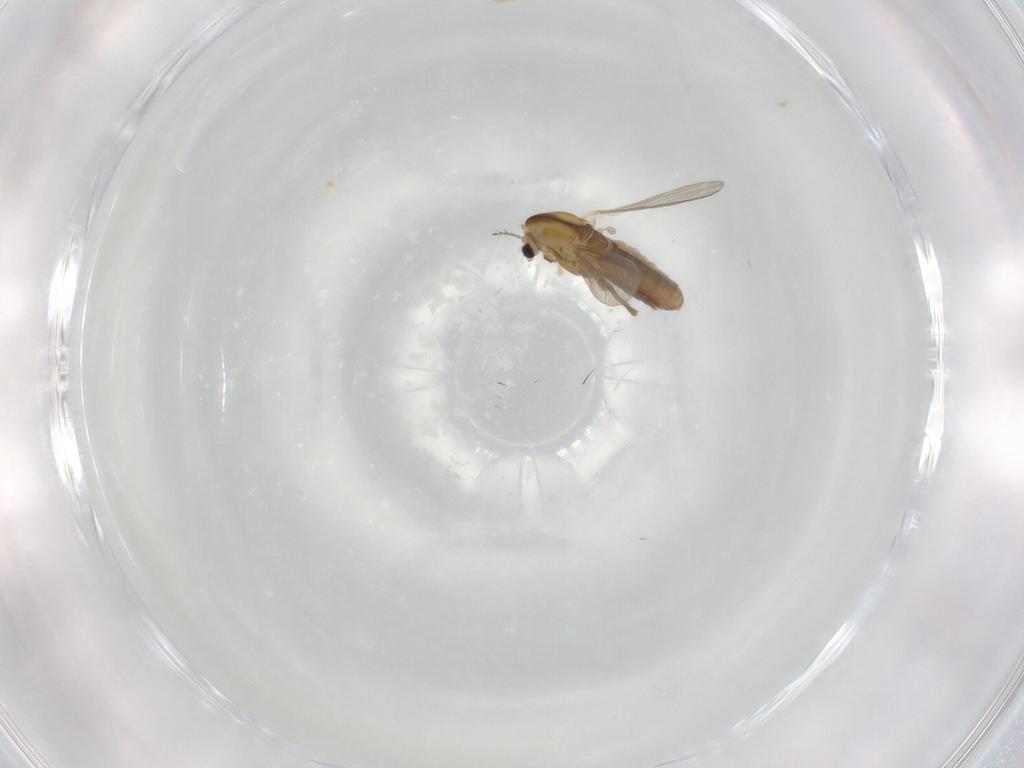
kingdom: Animalia
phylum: Arthropoda
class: Insecta
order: Diptera
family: Chironomidae
